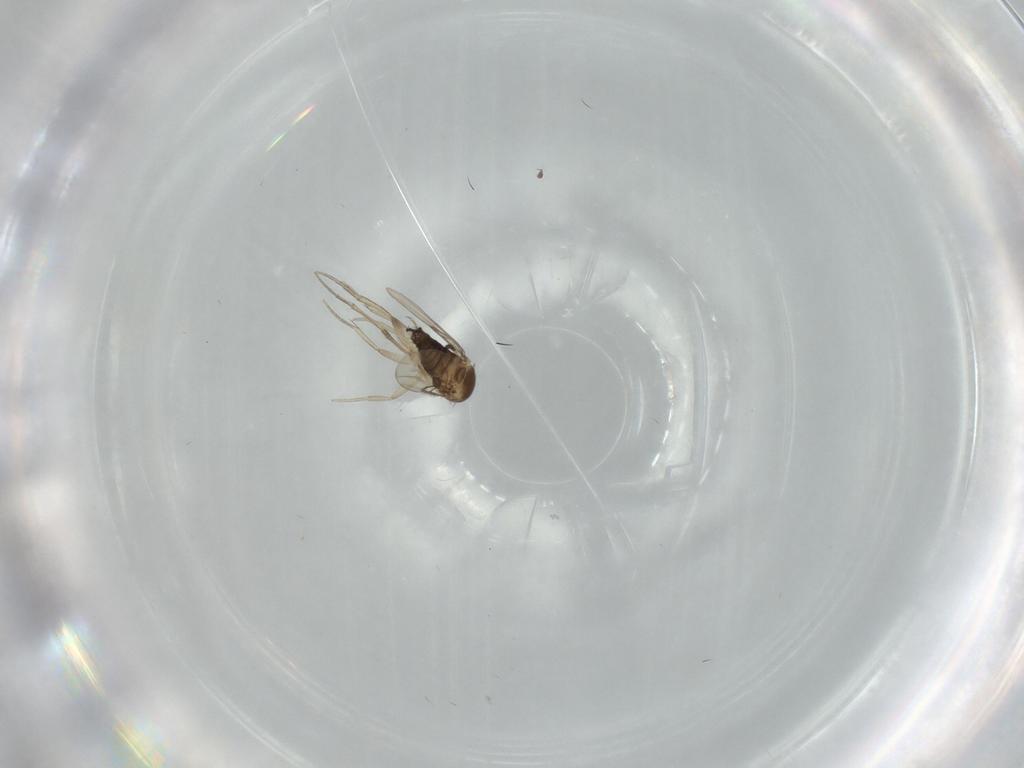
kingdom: Animalia
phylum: Arthropoda
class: Insecta
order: Diptera
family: Phoridae
